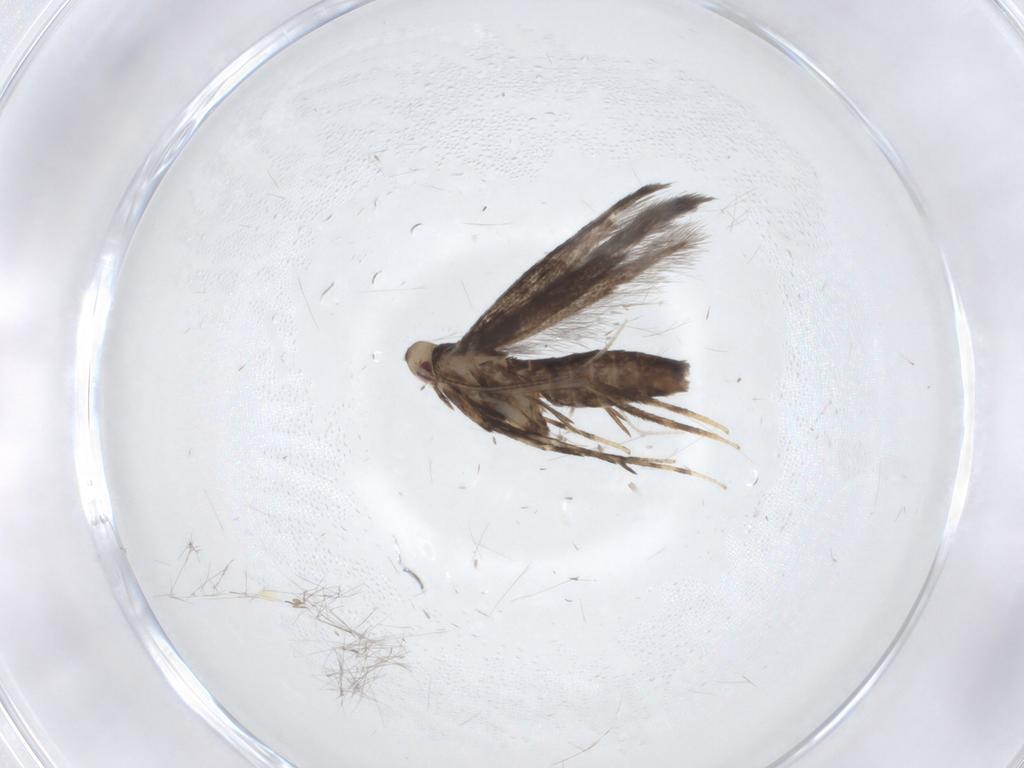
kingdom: Animalia
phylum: Arthropoda
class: Insecta
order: Lepidoptera
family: Gracillariidae
